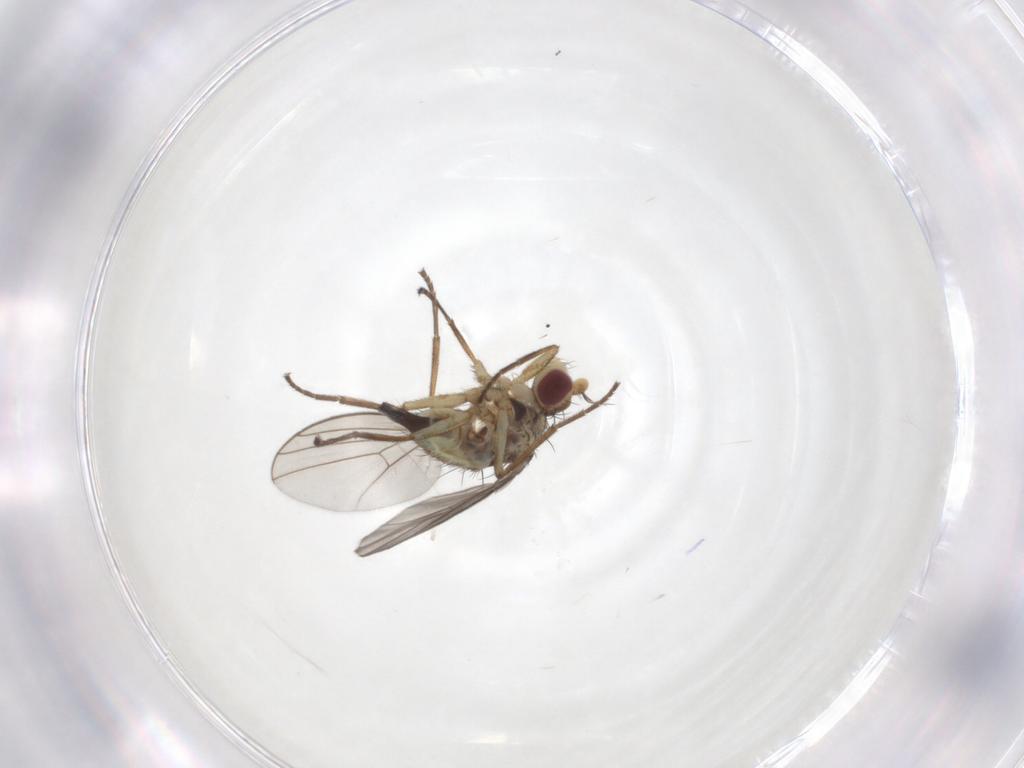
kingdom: Animalia
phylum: Arthropoda
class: Insecta
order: Diptera
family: Agromyzidae
